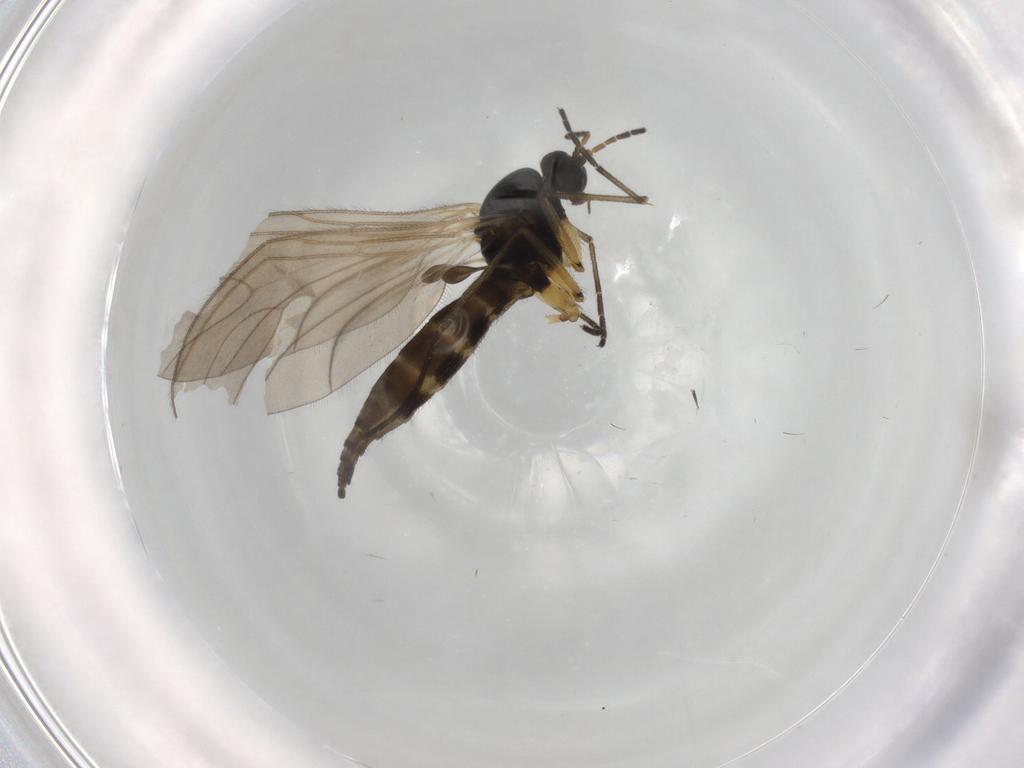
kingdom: Animalia
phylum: Arthropoda
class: Insecta
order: Diptera
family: Sciaridae
